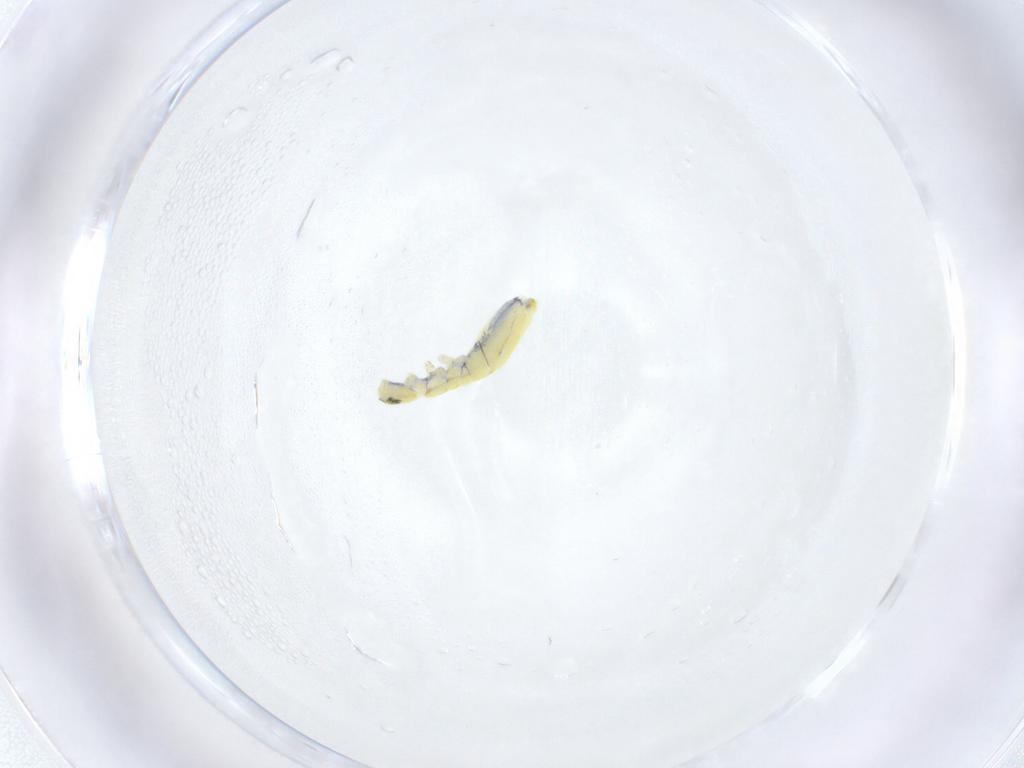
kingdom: Animalia
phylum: Arthropoda
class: Collembola
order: Entomobryomorpha
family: Paronellidae
